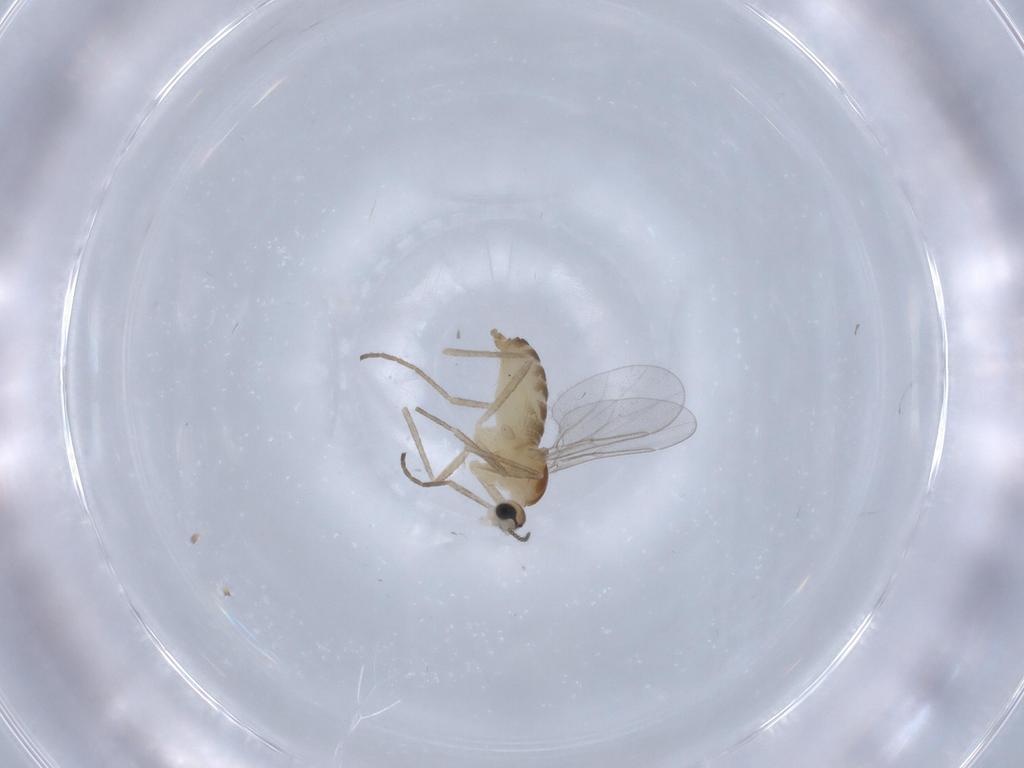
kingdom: Animalia
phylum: Arthropoda
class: Insecta
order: Diptera
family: Cecidomyiidae
